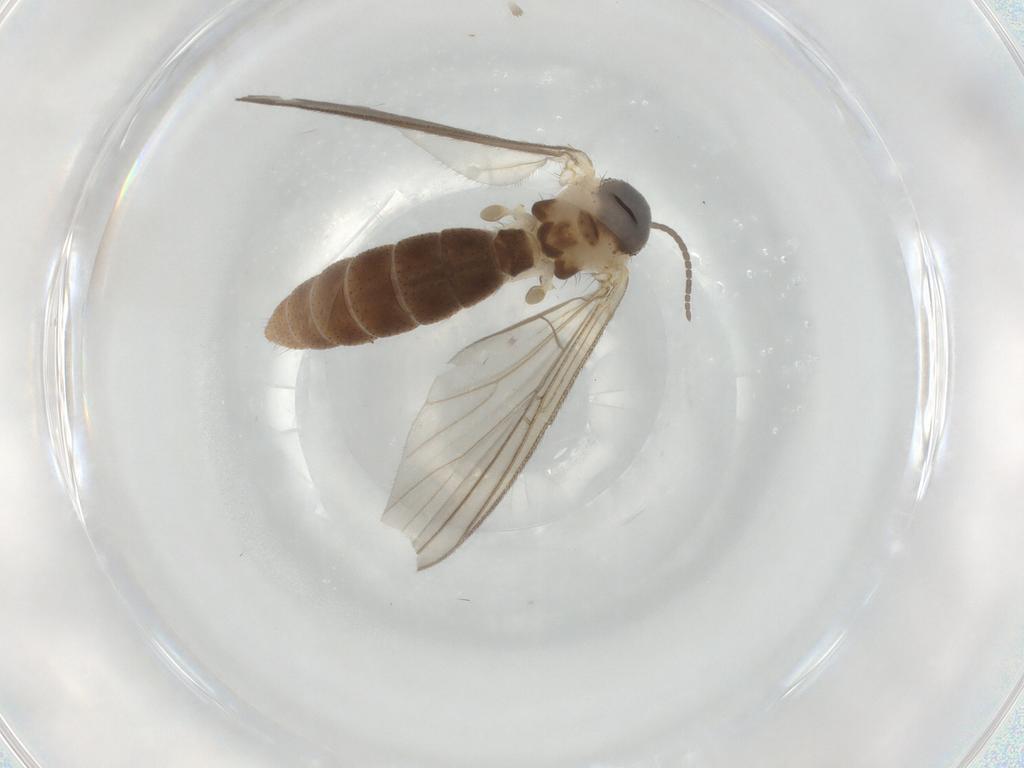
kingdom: Animalia
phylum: Arthropoda
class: Insecta
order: Diptera
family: Mycetophilidae
